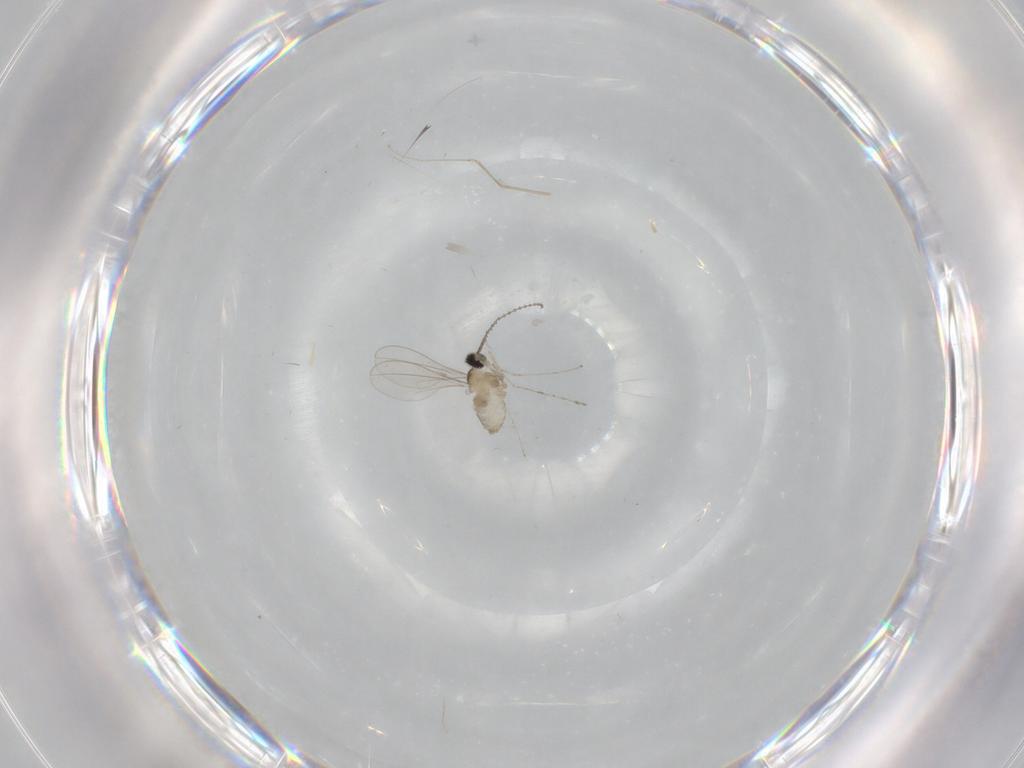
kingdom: Animalia
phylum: Arthropoda
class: Insecta
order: Diptera
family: Cecidomyiidae
